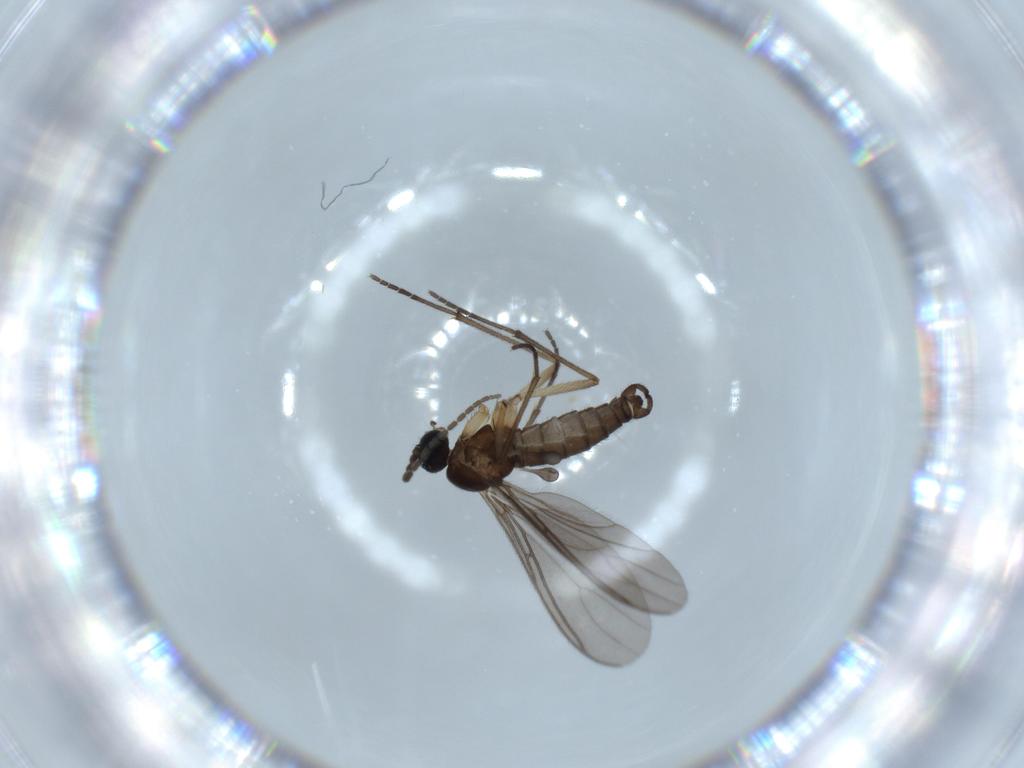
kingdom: Animalia
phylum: Arthropoda
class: Insecta
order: Diptera
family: Sciaridae
